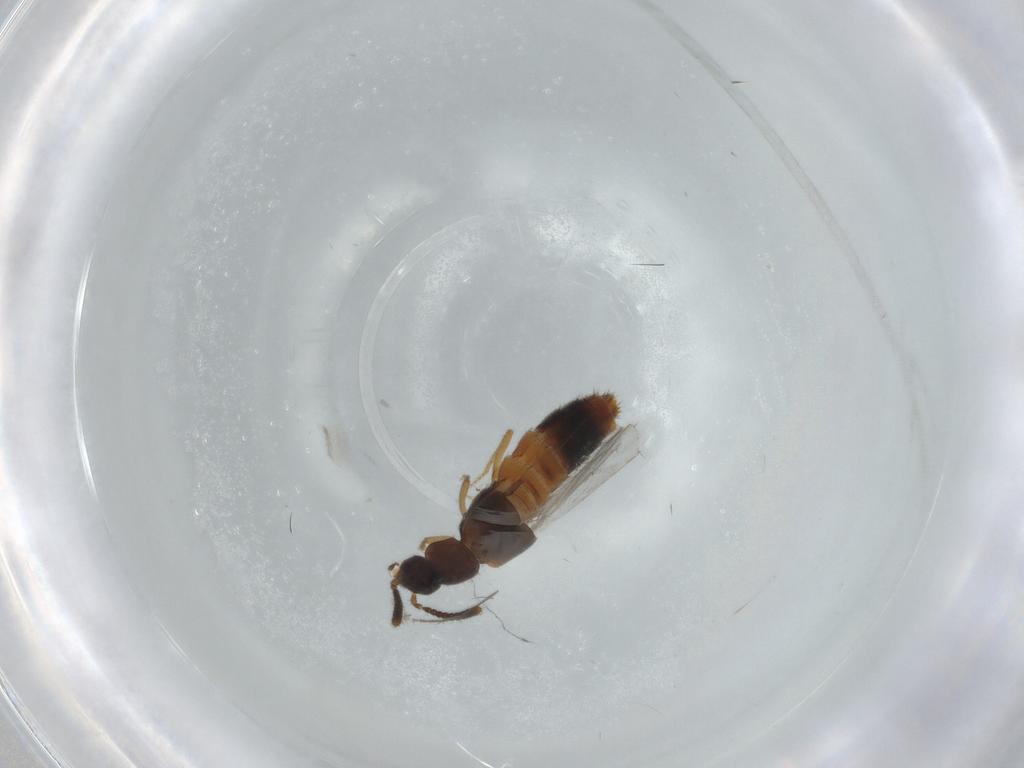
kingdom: Animalia
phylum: Arthropoda
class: Insecta
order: Coleoptera
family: Staphylinidae
